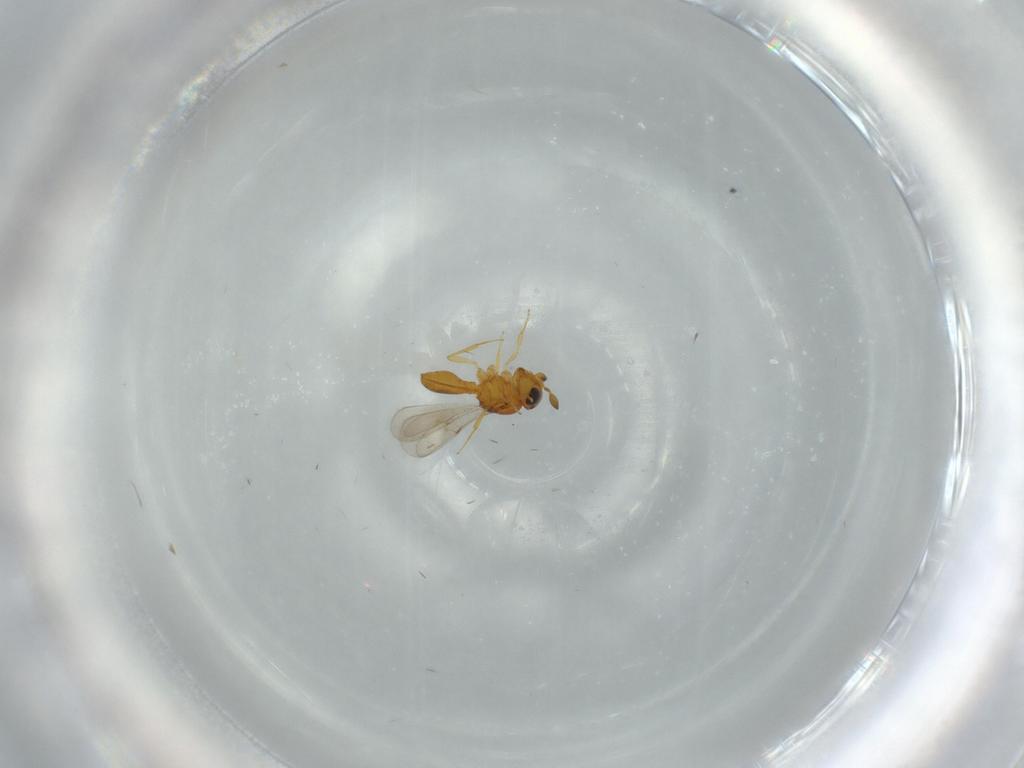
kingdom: Animalia
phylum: Arthropoda
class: Insecta
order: Hymenoptera
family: Scelionidae
